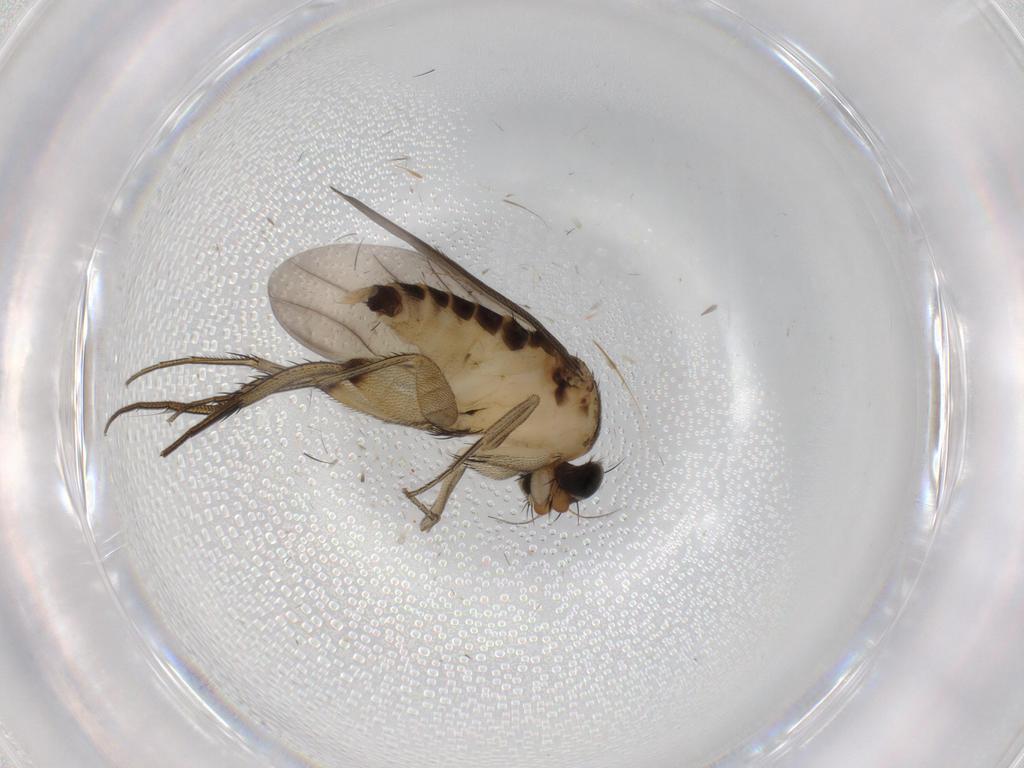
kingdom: Animalia
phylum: Arthropoda
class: Insecta
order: Diptera
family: Phoridae
